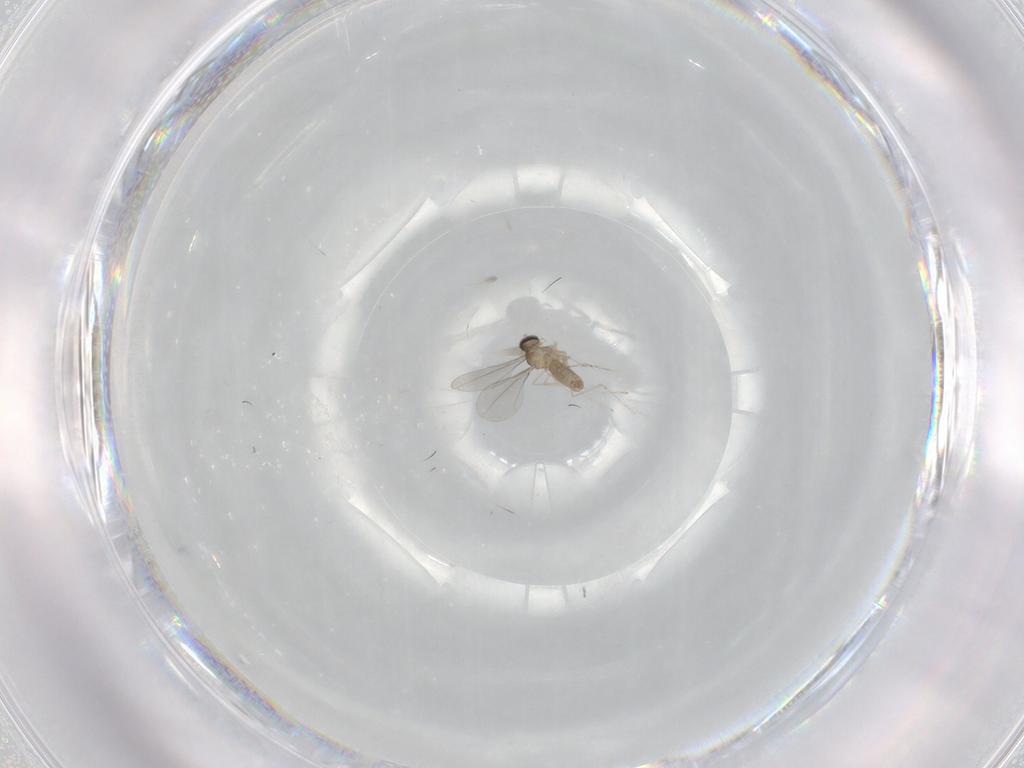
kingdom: Animalia
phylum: Arthropoda
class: Insecta
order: Diptera
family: Cecidomyiidae
